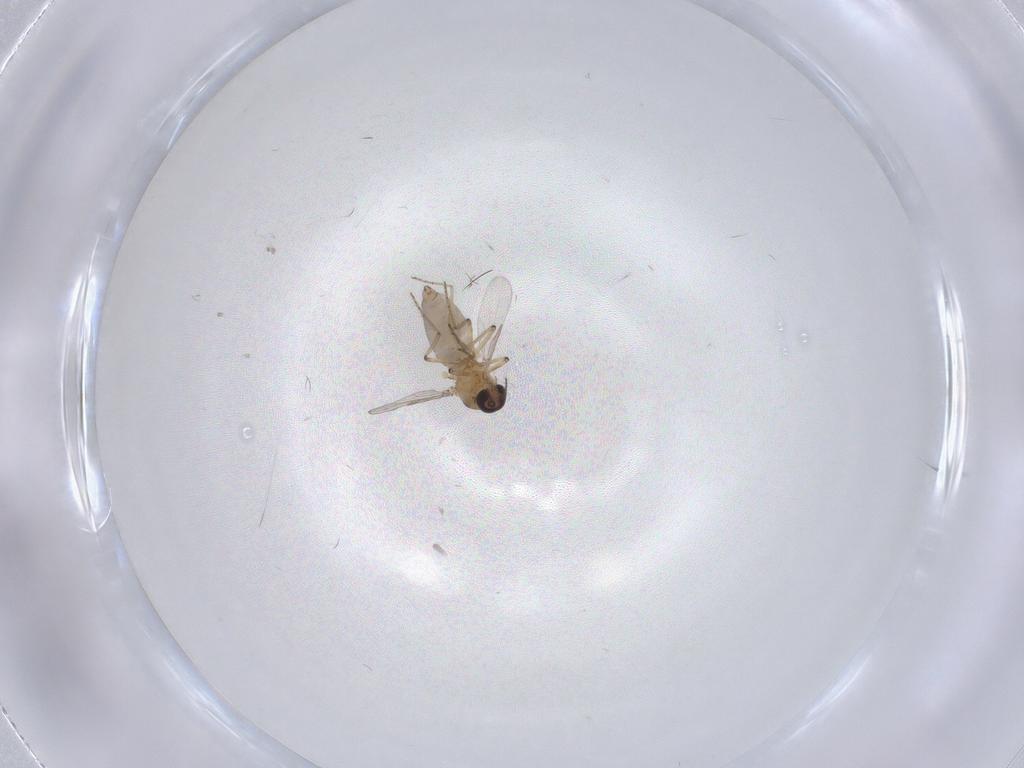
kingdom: Animalia
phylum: Arthropoda
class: Insecta
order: Diptera
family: Ceratopogonidae
